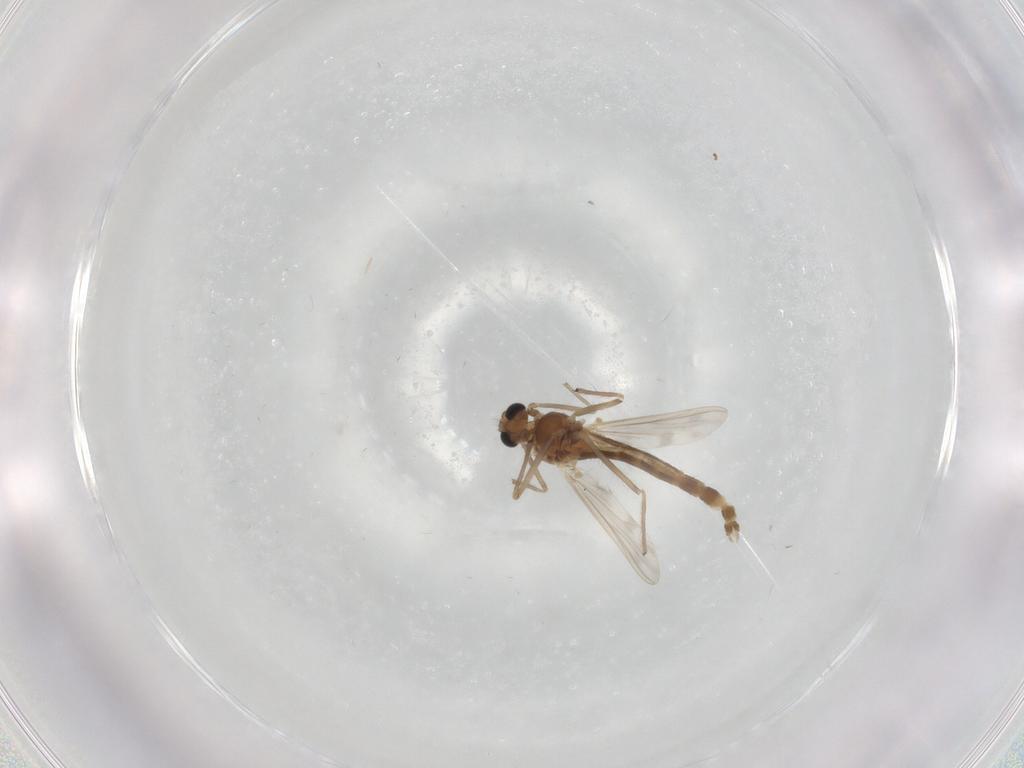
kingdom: Animalia
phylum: Arthropoda
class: Insecta
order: Diptera
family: Chironomidae
